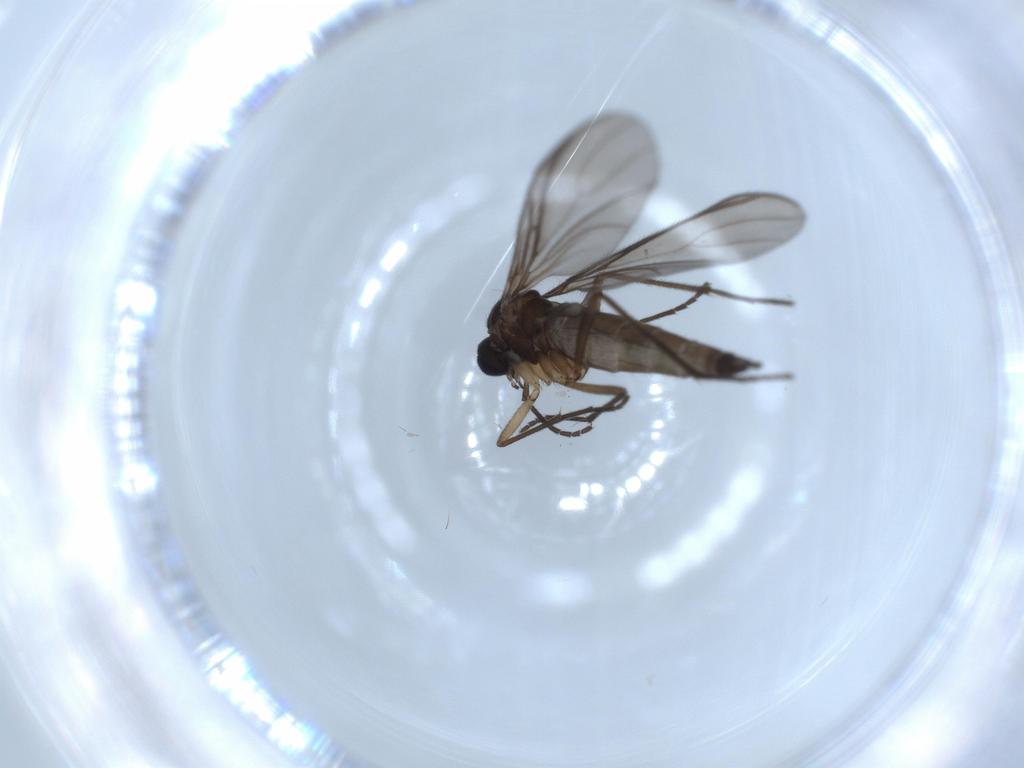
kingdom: Animalia
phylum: Arthropoda
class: Insecta
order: Diptera
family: Sciaridae
